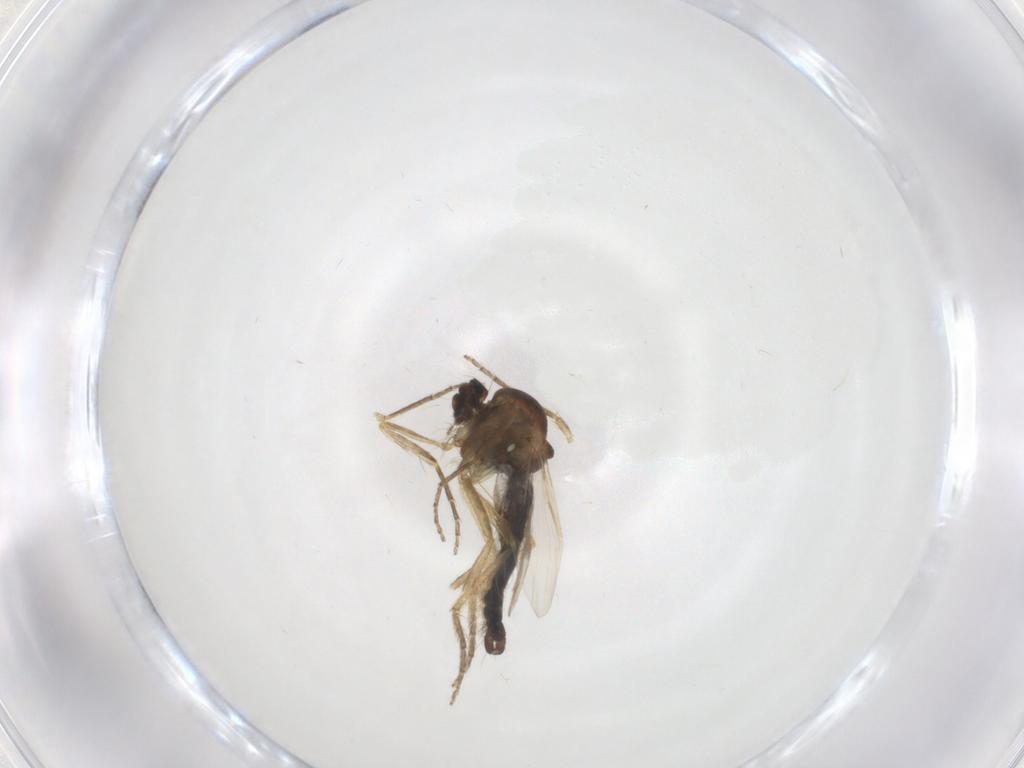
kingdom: Animalia
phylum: Arthropoda
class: Insecta
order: Diptera
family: Ceratopogonidae
